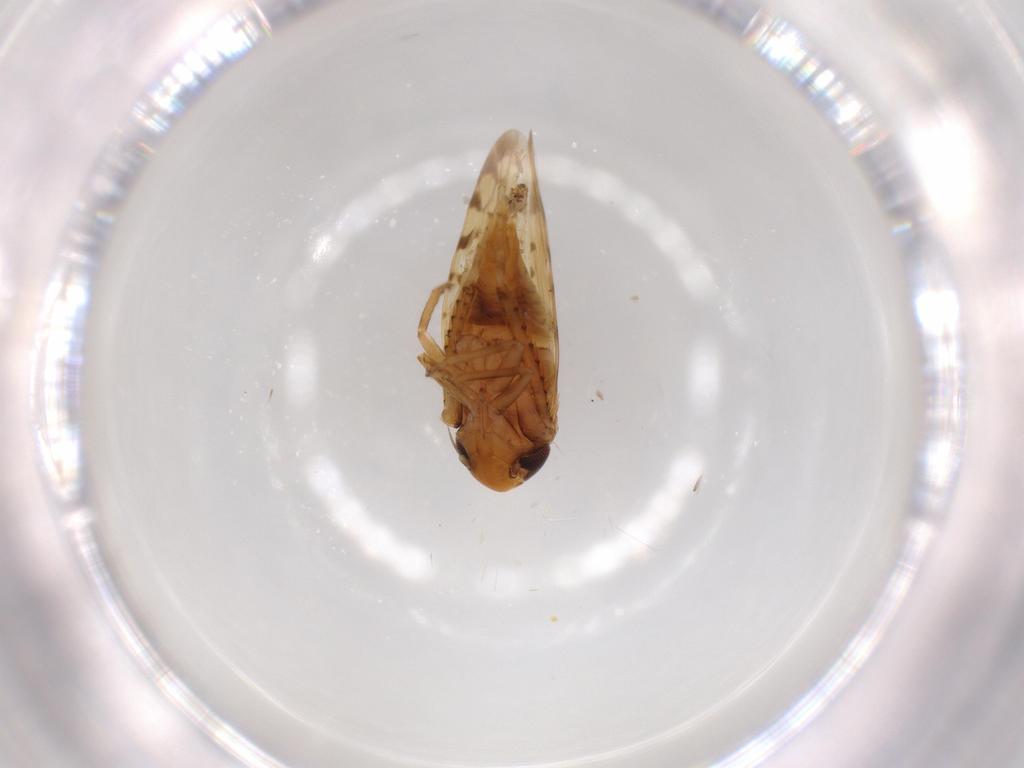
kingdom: Animalia
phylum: Arthropoda
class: Insecta
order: Hemiptera
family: Cicadellidae
